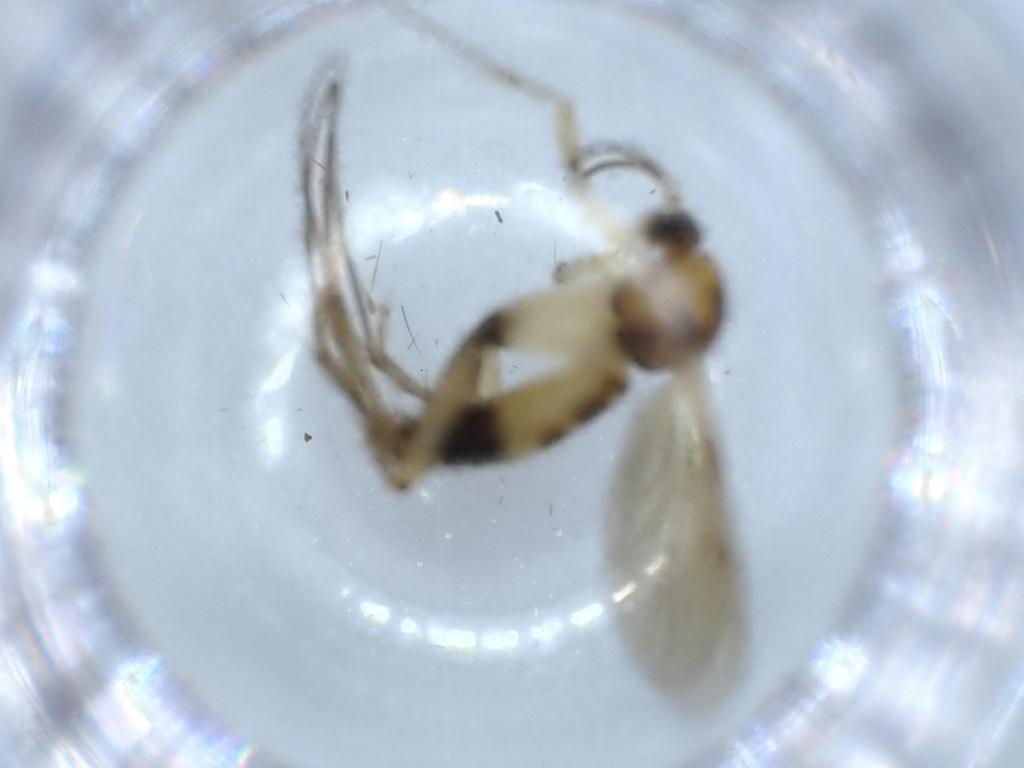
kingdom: Animalia
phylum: Arthropoda
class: Insecta
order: Diptera
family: Mycetophilidae
